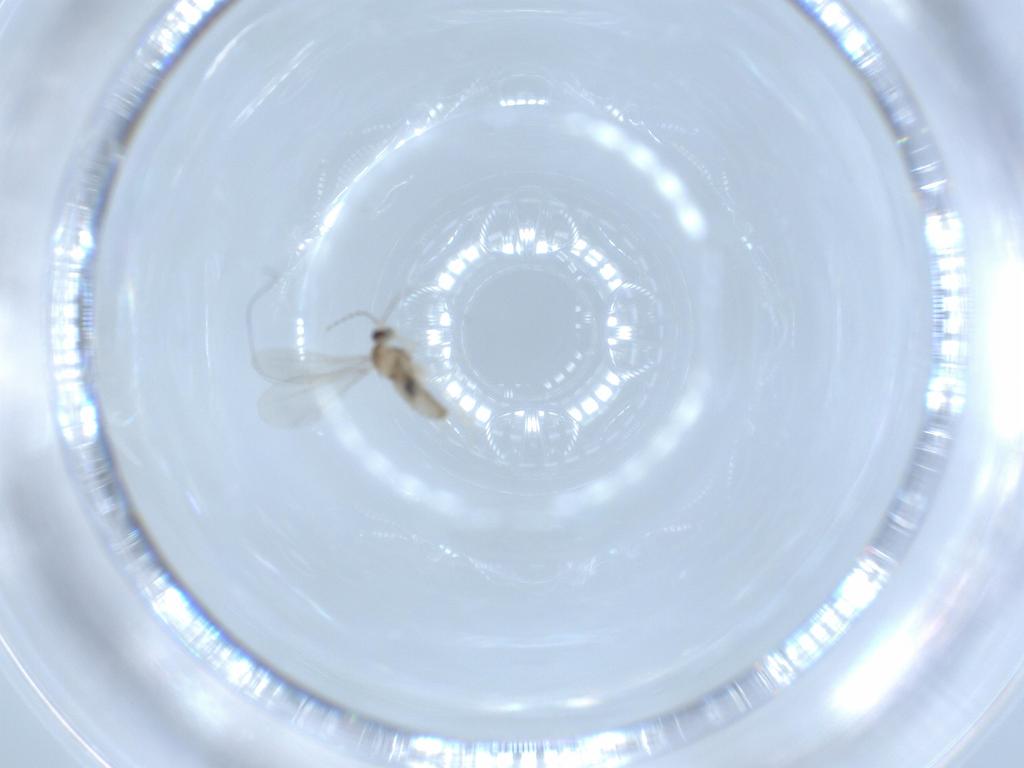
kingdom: Animalia
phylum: Arthropoda
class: Insecta
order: Diptera
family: Cecidomyiidae
